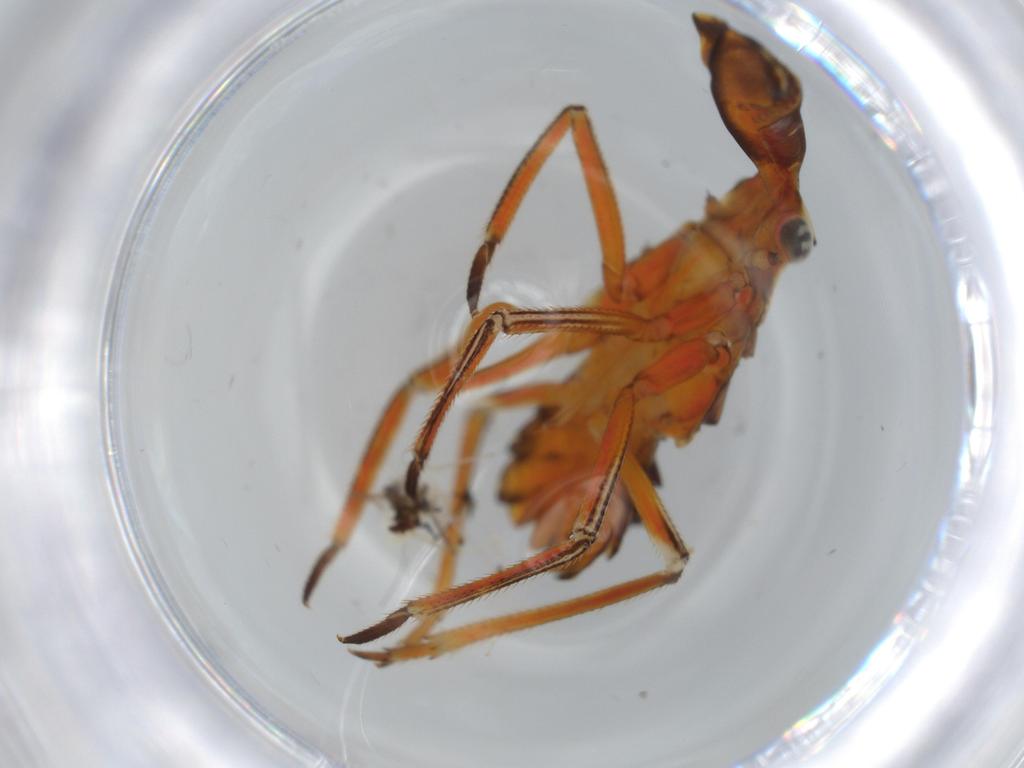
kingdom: Animalia
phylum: Arthropoda
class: Insecta
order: Hemiptera
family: Fulgoridae
